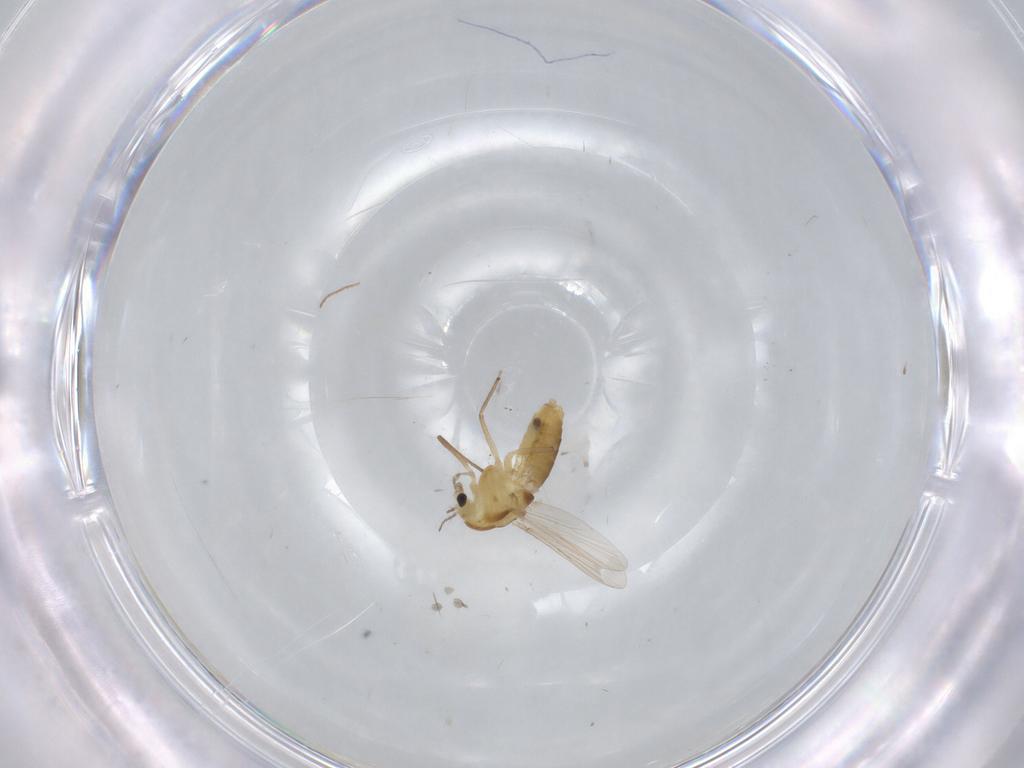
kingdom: Animalia
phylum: Arthropoda
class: Insecta
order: Diptera
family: Chironomidae
